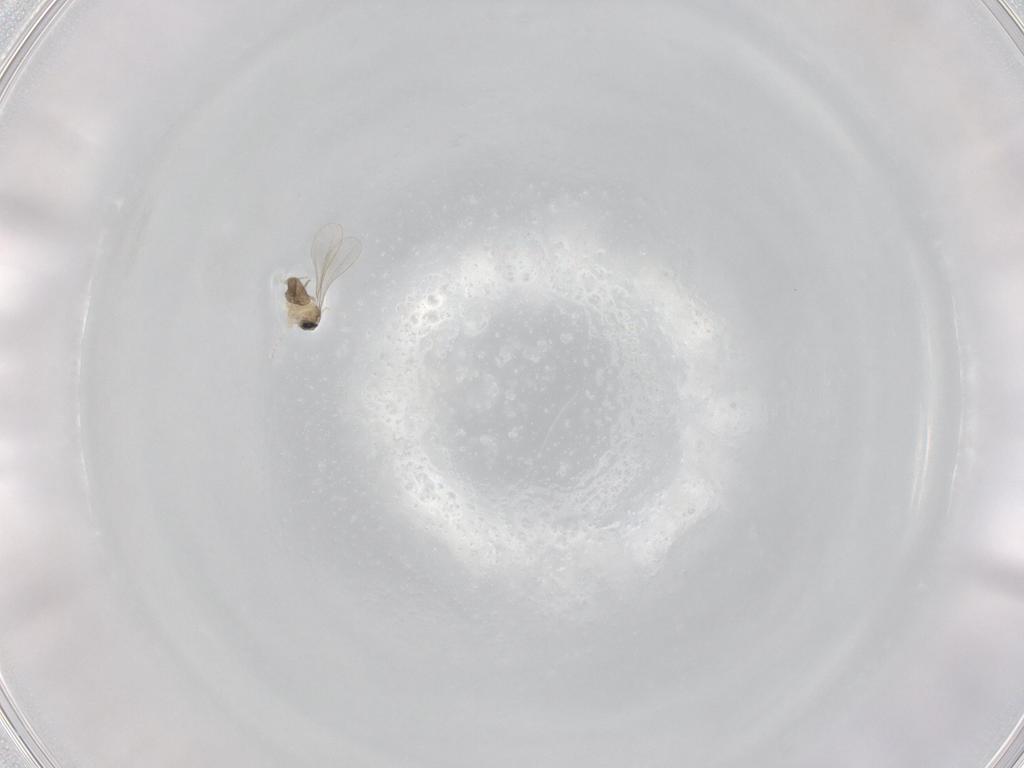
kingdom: Animalia
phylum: Arthropoda
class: Insecta
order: Diptera
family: Cecidomyiidae
